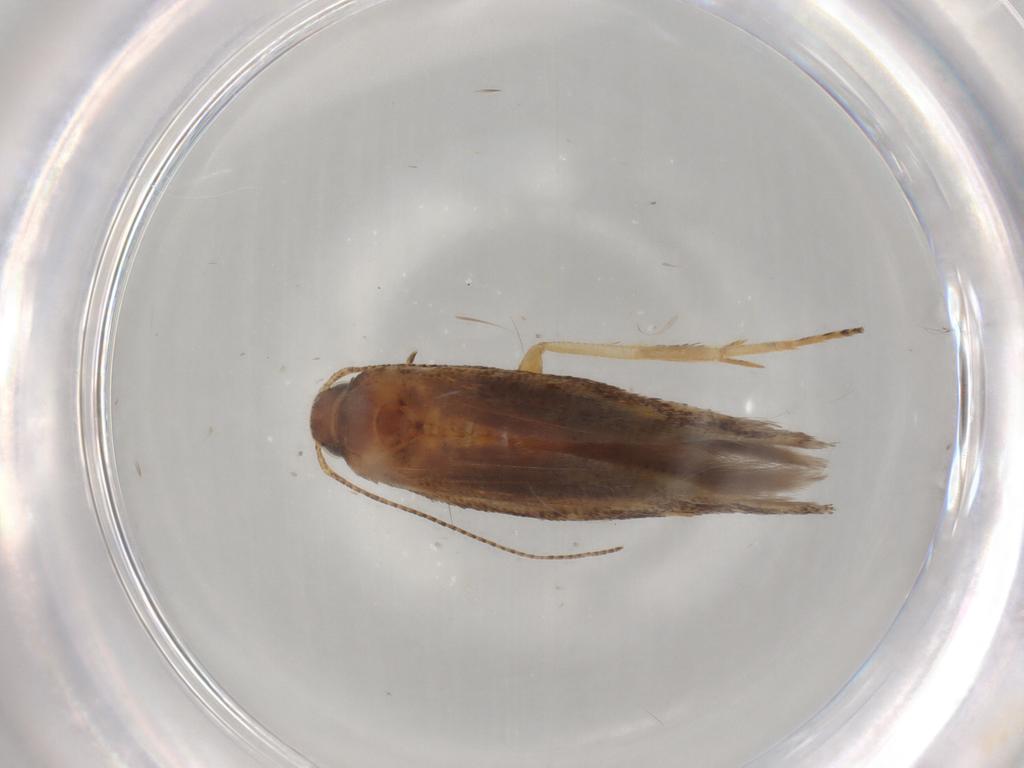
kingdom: Animalia
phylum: Arthropoda
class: Insecta
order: Lepidoptera
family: Gelechiidae
